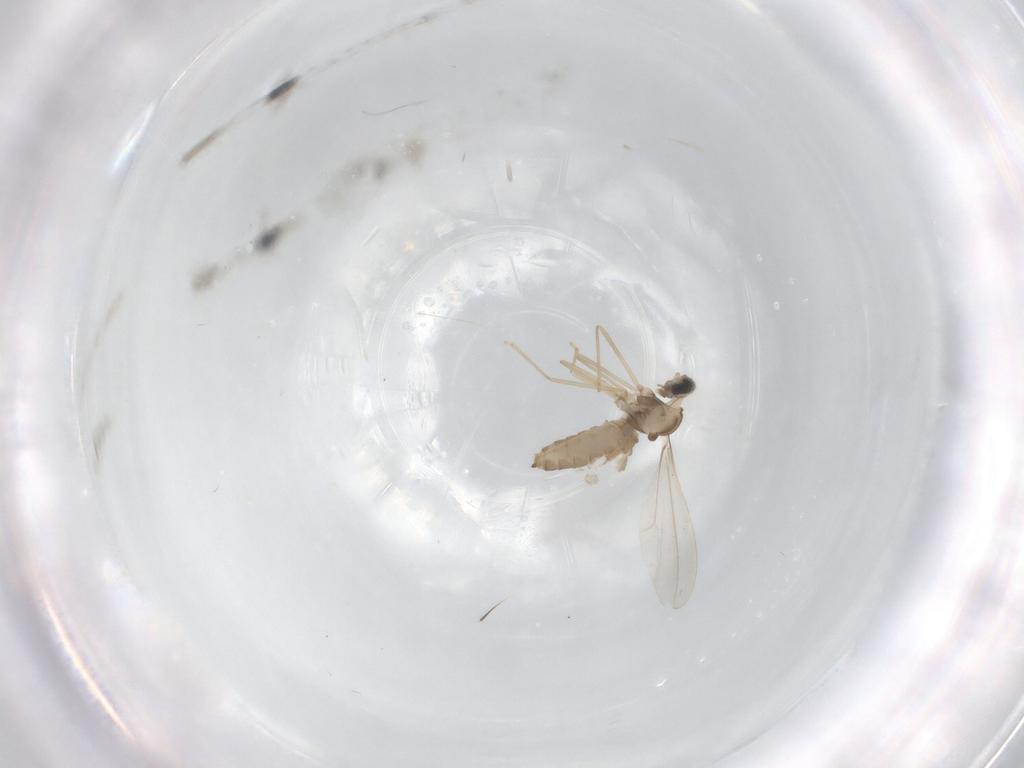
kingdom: Animalia
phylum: Arthropoda
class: Insecta
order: Diptera
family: Cecidomyiidae
